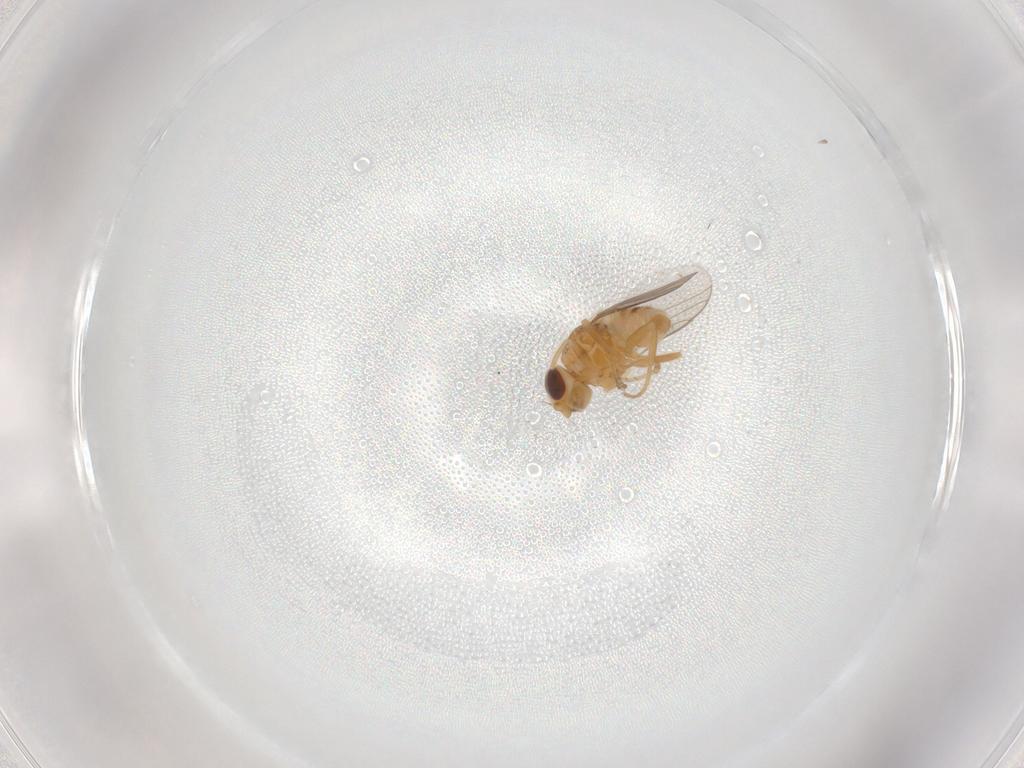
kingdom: Animalia
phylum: Arthropoda
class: Insecta
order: Diptera
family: Chloropidae
